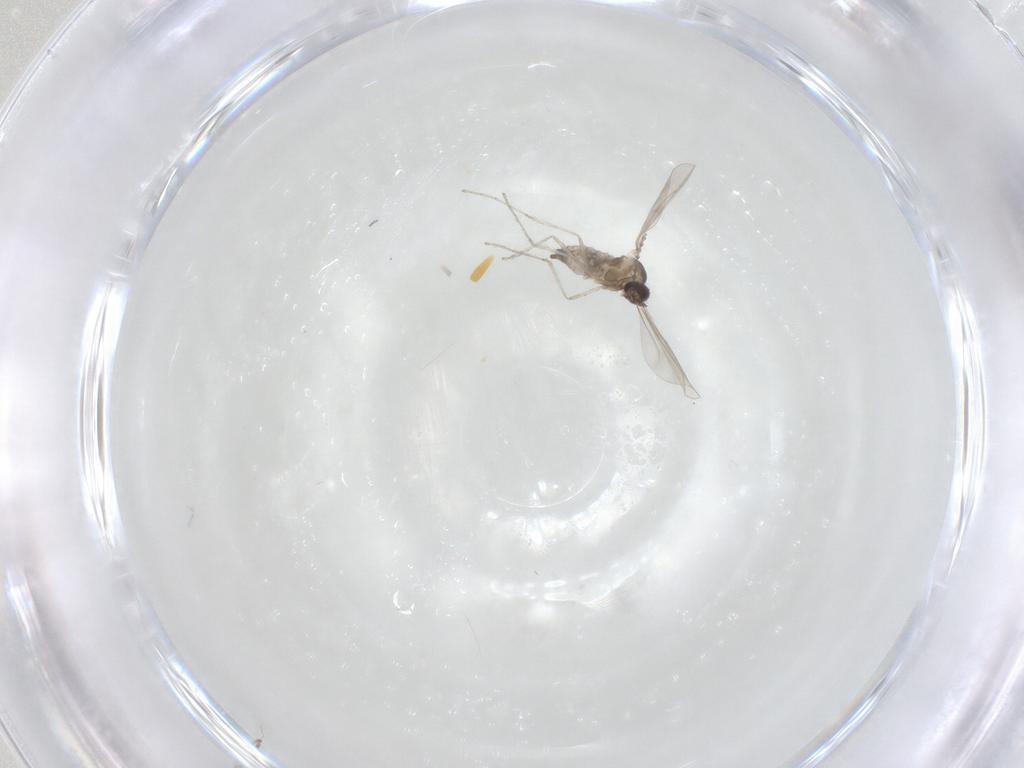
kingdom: Animalia
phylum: Arthropoda
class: Insecta
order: Diptera
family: Cecidomyiidae
